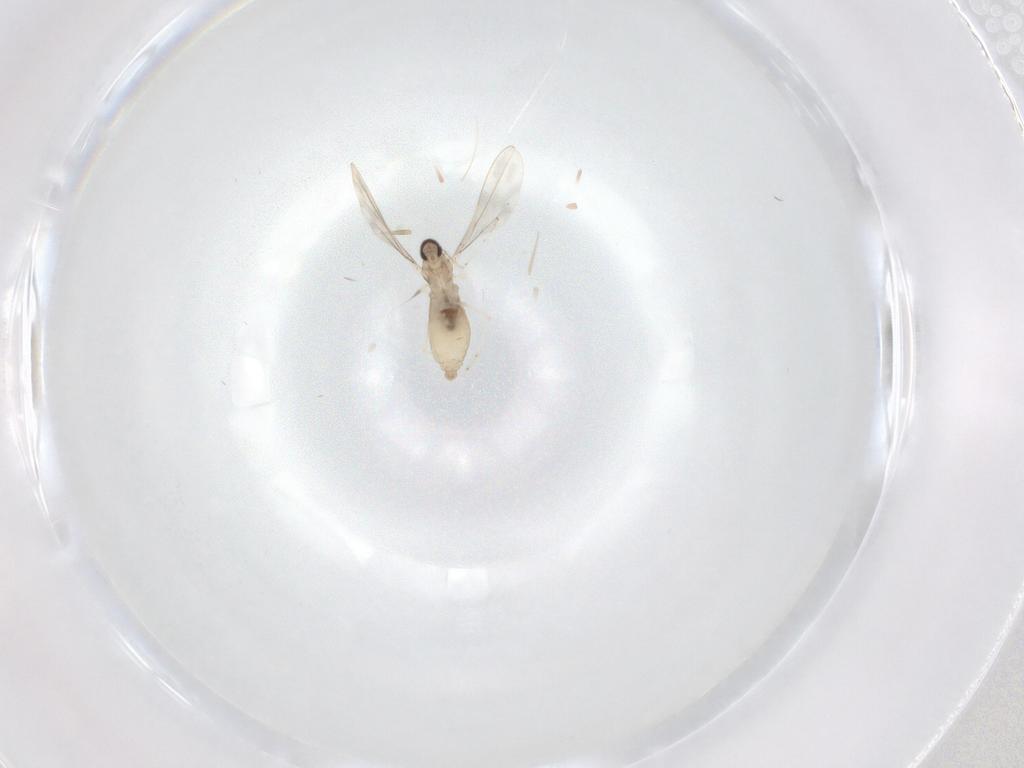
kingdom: Animalia
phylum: Arthropoda
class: Insecta
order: Diptera
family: Cecidomyiidae
